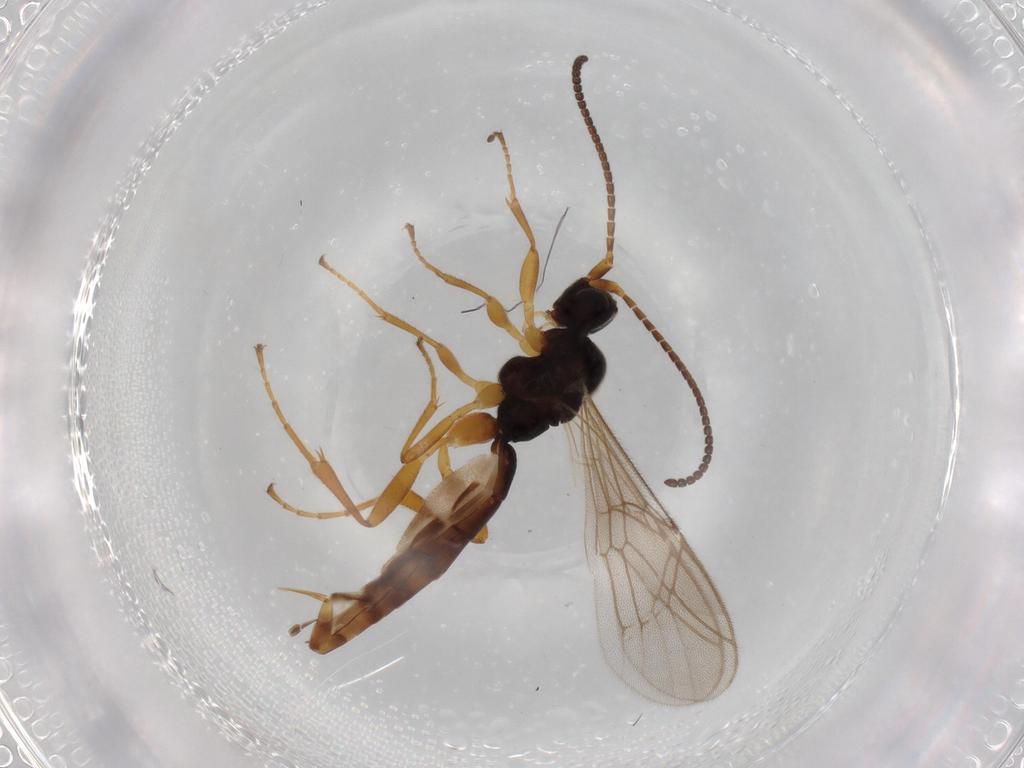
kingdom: Animalia
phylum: Arthropoda
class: Insecta
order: Hymenoptera
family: Ichneumonidae
